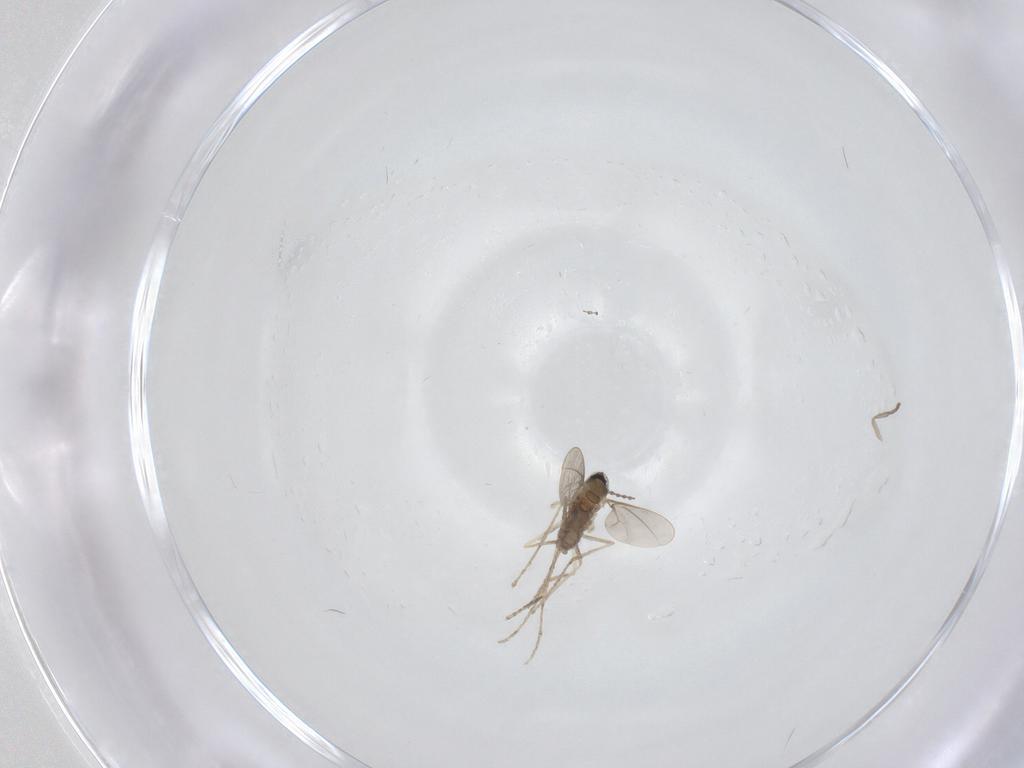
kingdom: Animalia
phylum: Arthropoda
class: Insecta
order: Diptera
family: Cecidomyiidae
